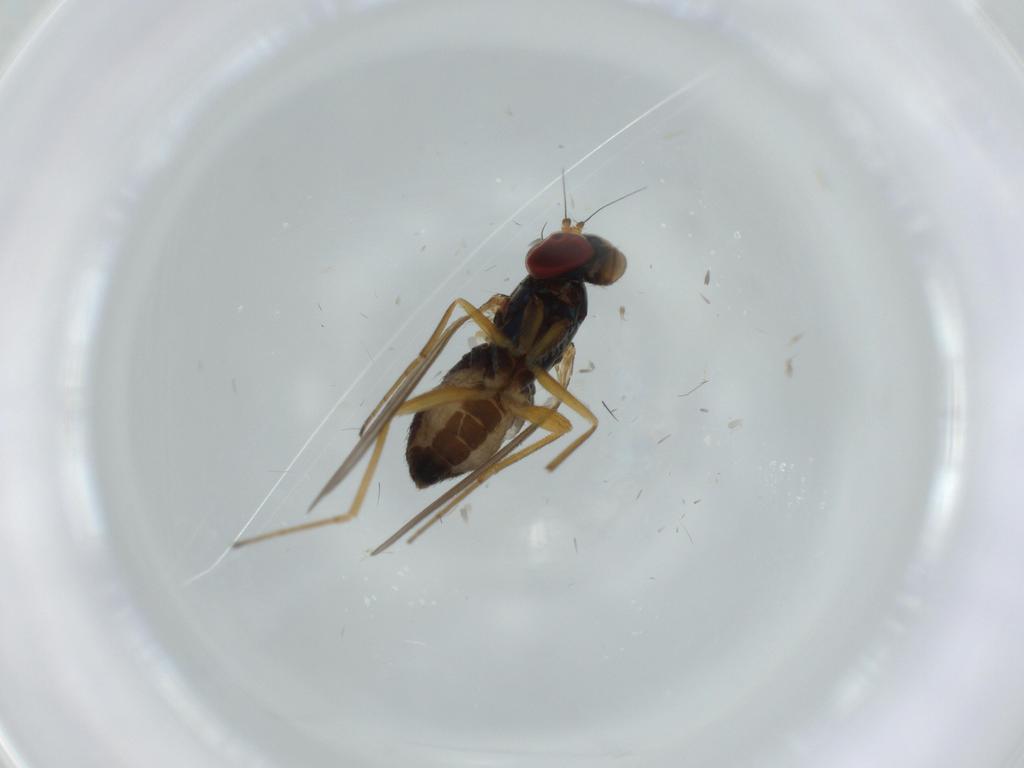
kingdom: Animalia
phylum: Arthropoda
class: Insecta
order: Diptera
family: Dolichopodidae
